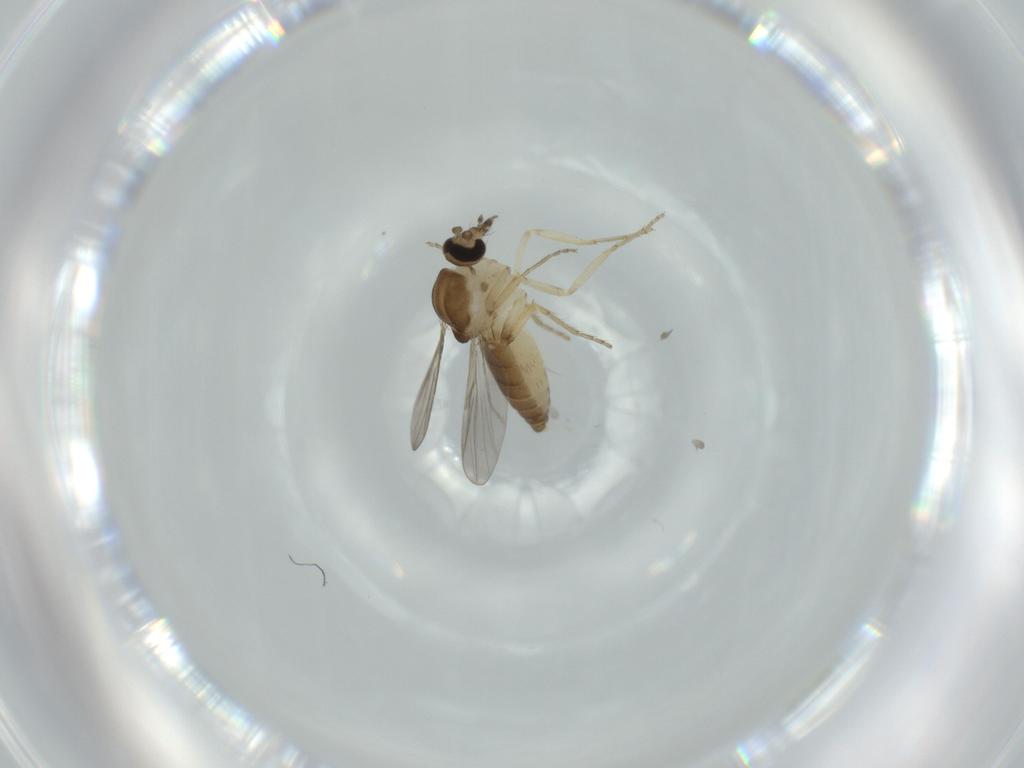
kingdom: Animalia
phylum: Arthropoda
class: Insecta
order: Diptera
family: Ceratopogonidae
